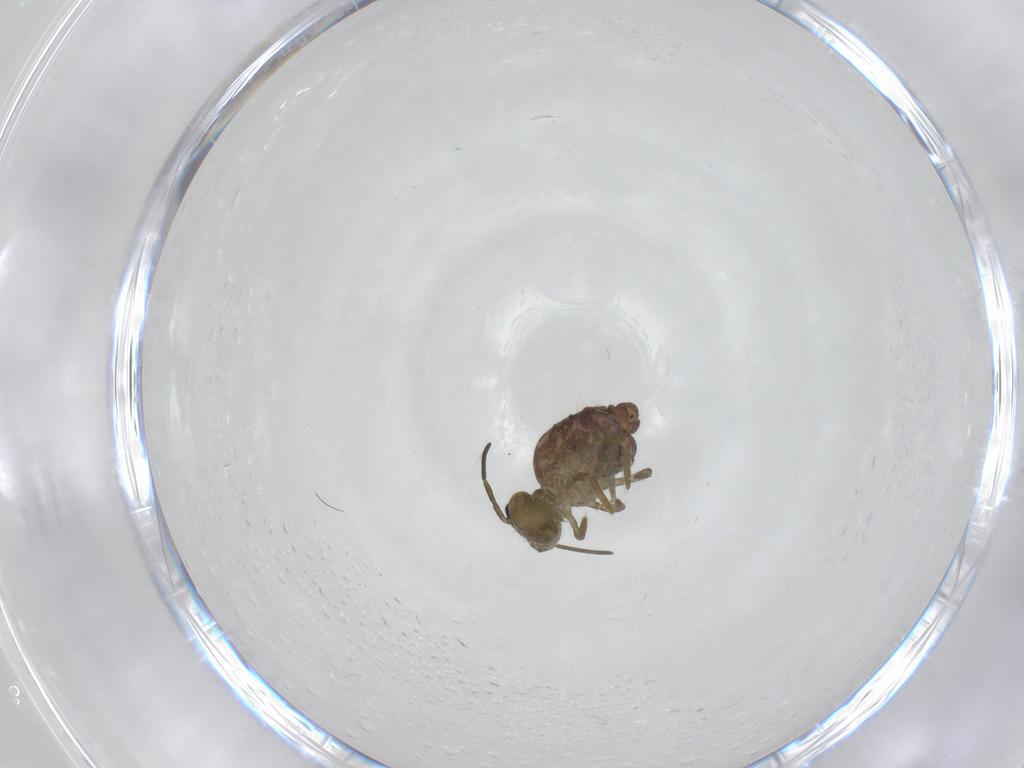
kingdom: Animalia
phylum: Arthropoda
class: Collembola
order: Symphypleona
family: Sminthuridae
